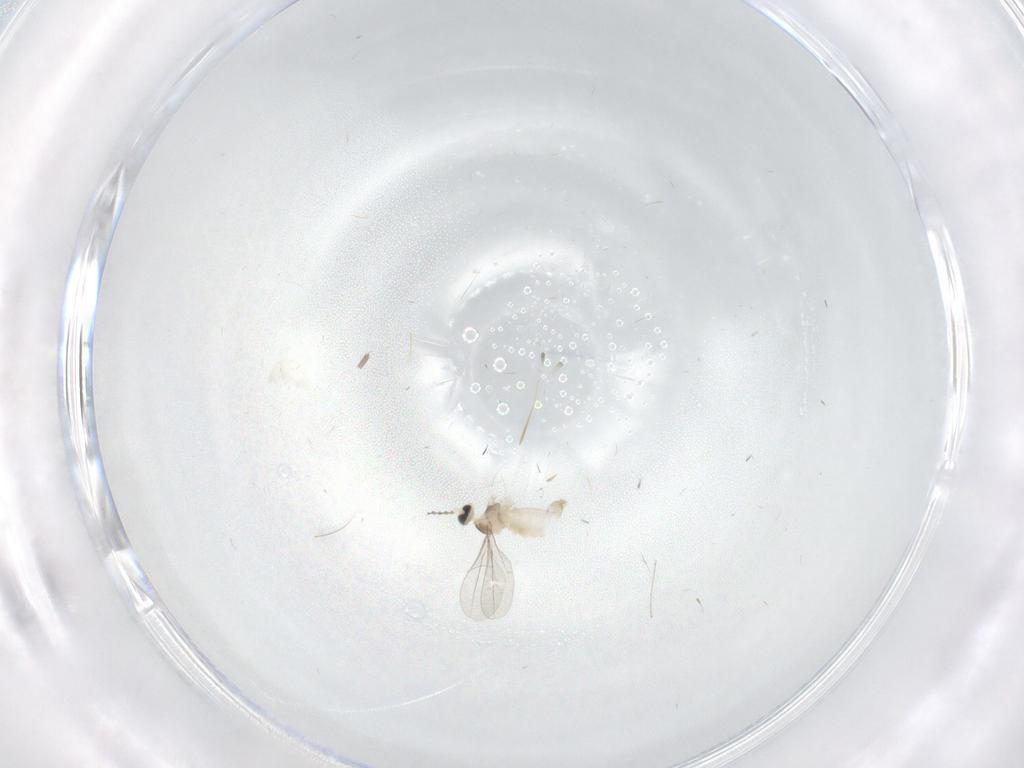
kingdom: Animalia
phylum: Arthropoda
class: Insecta
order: Diptera
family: Cecidomyiidae
